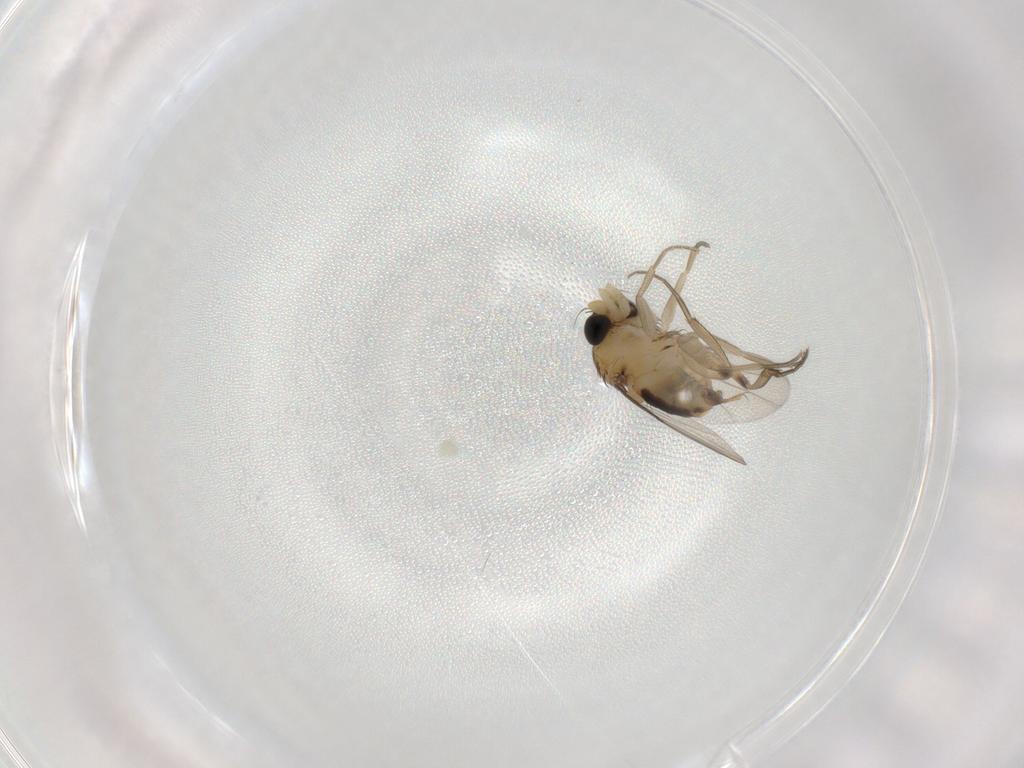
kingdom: Animalia
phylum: Arthropoda
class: Insecta
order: Diptera
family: Phoridae
